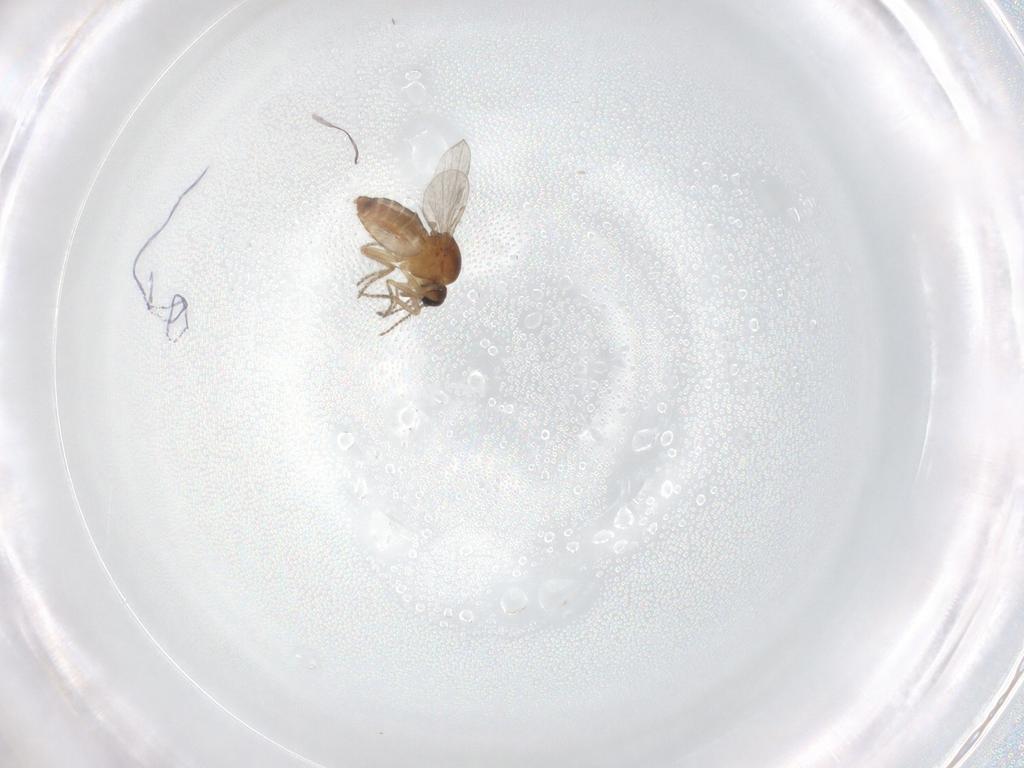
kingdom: Animalia
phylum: Arthropoda
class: Insecta
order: Diptera
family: Ceratopogonidae
